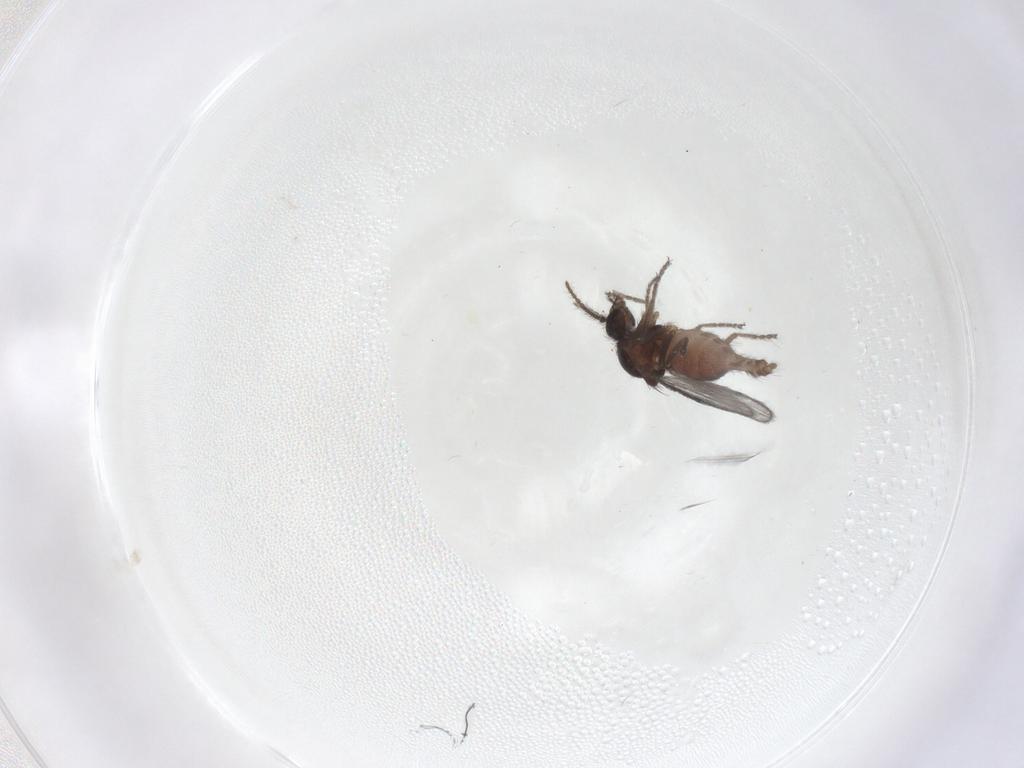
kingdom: Animalia
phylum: Arthropoda
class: Insecta
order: Diptera
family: Ceratopogonidae
